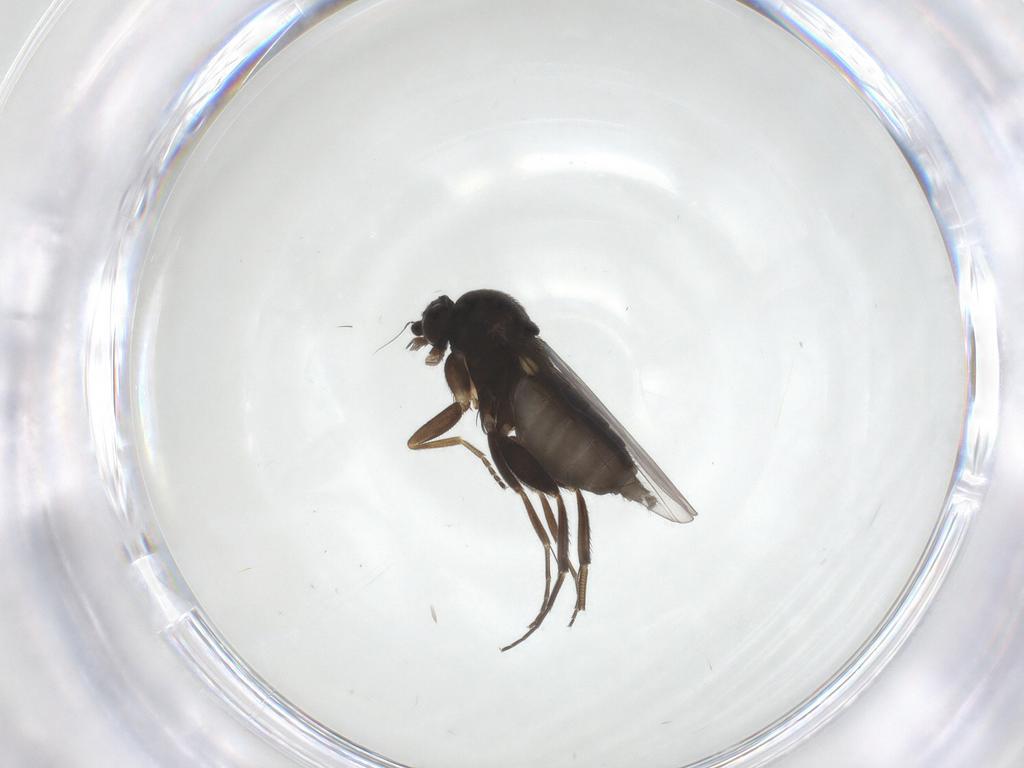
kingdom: Animalia
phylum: Arthropoda
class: Insecta
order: Diptera
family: Phoridae
